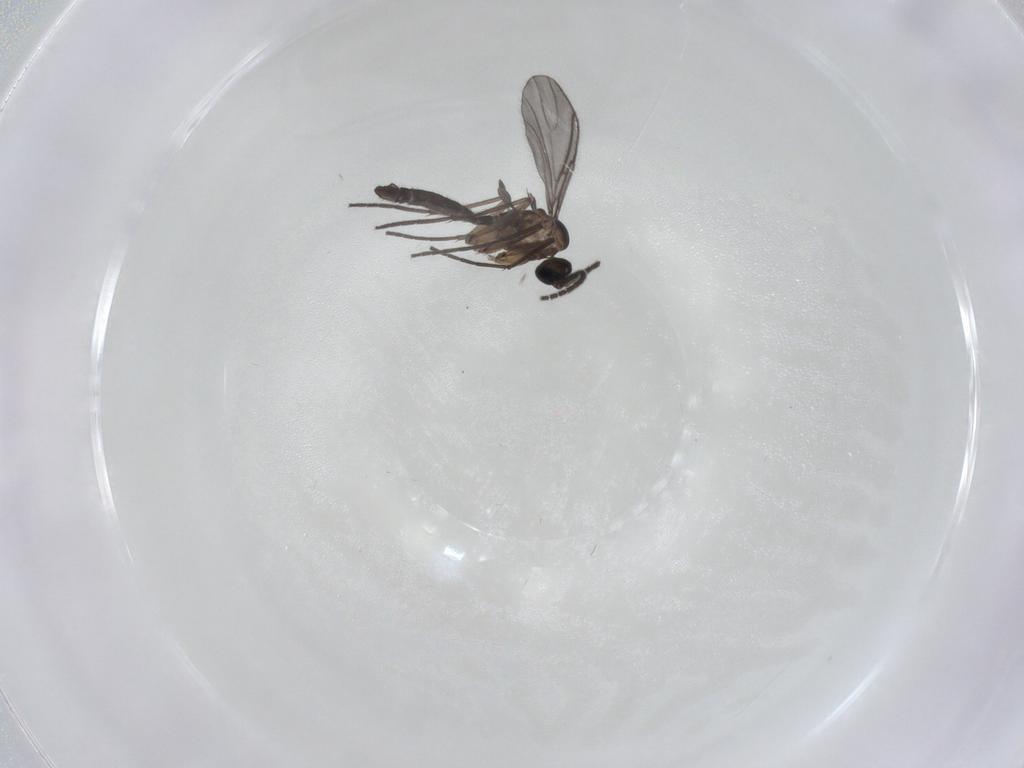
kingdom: Animalia
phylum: Arthropoda
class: Insecta
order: Diptera
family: Sciaridae
